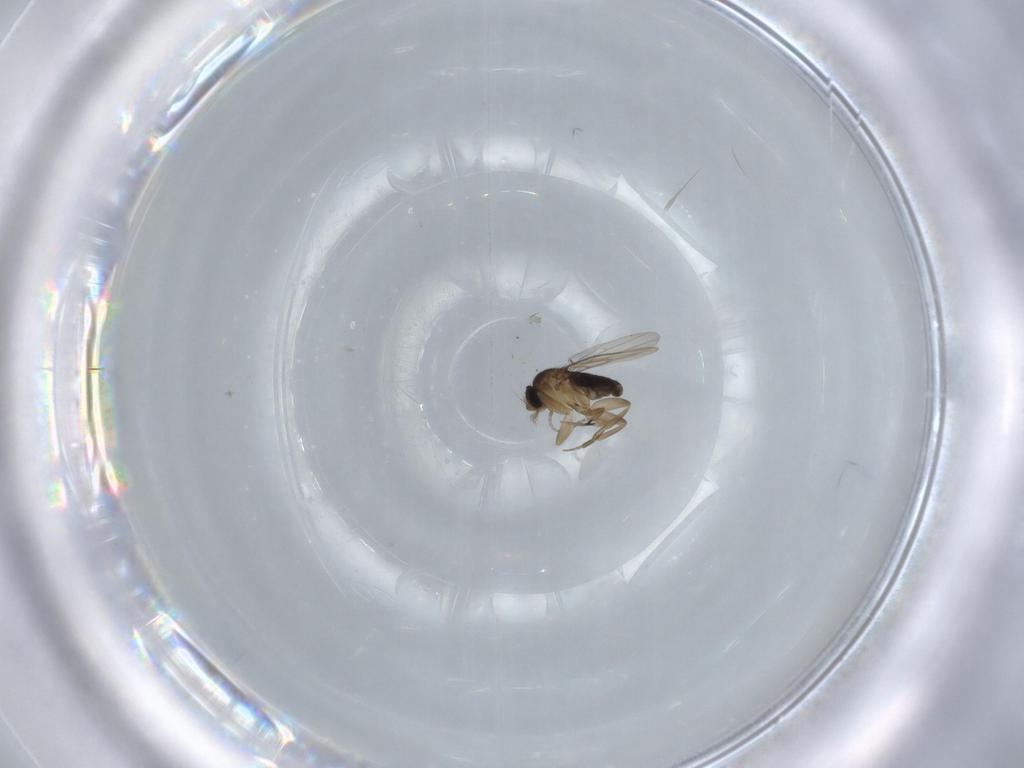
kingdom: Animalia
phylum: Arthropoda
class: Insecta
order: Diptera
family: Phoridae
